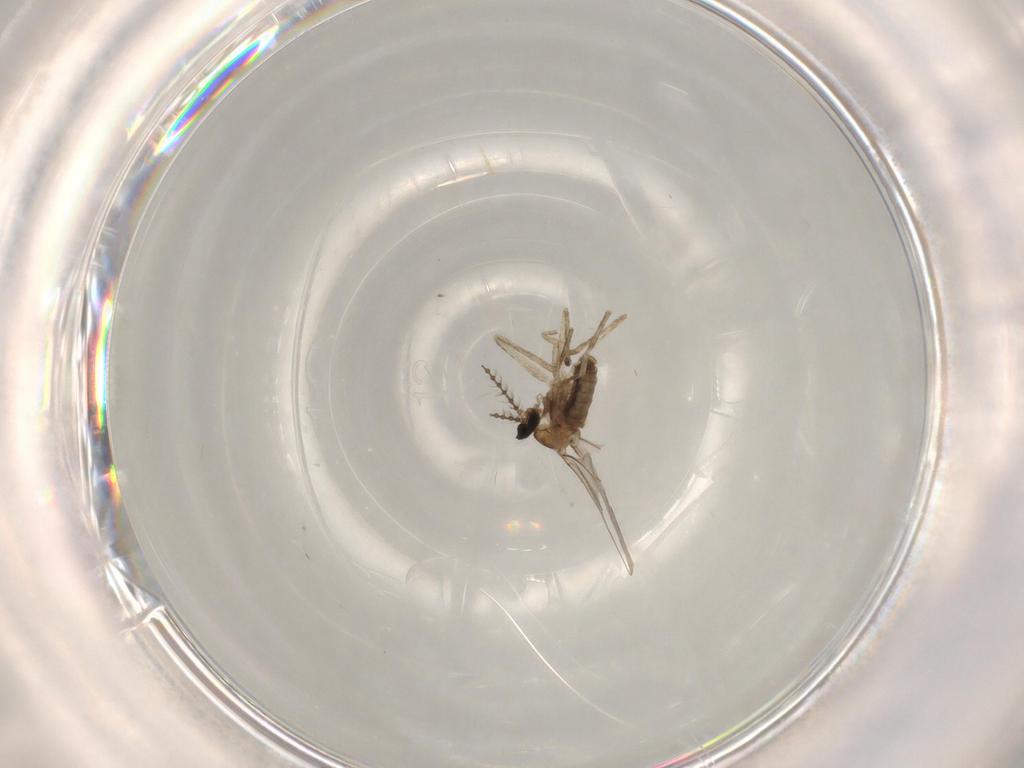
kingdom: Animalia
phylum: Arthropoda
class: Insecta
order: Diptera
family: Cecidomyiidae
